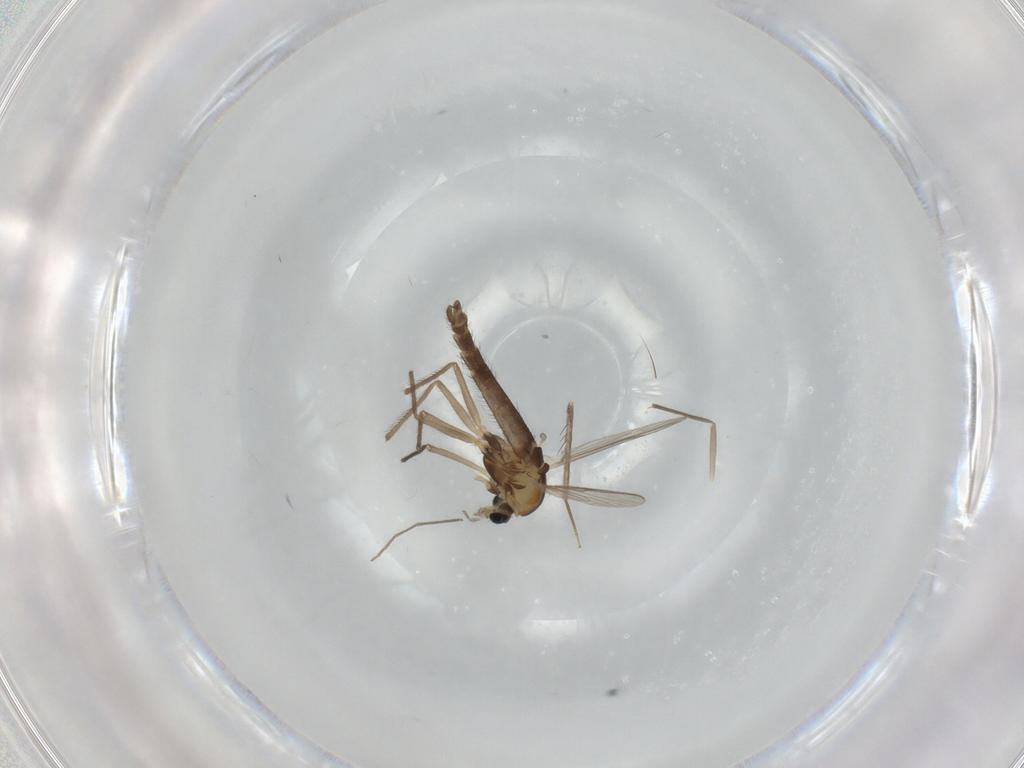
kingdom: Animalia
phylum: Arthropoda
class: Insecta
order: Diptera
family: Chironomidae
